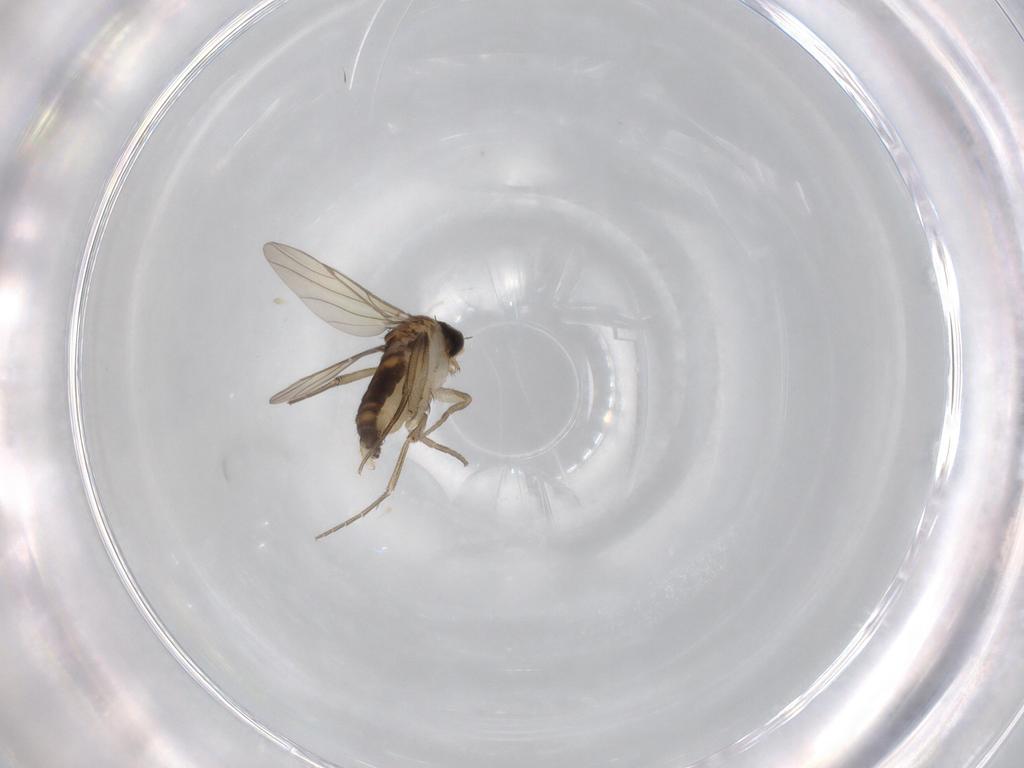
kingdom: Animalia
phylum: Arthropoda
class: Insecta
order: Diptera
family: Phoridae
